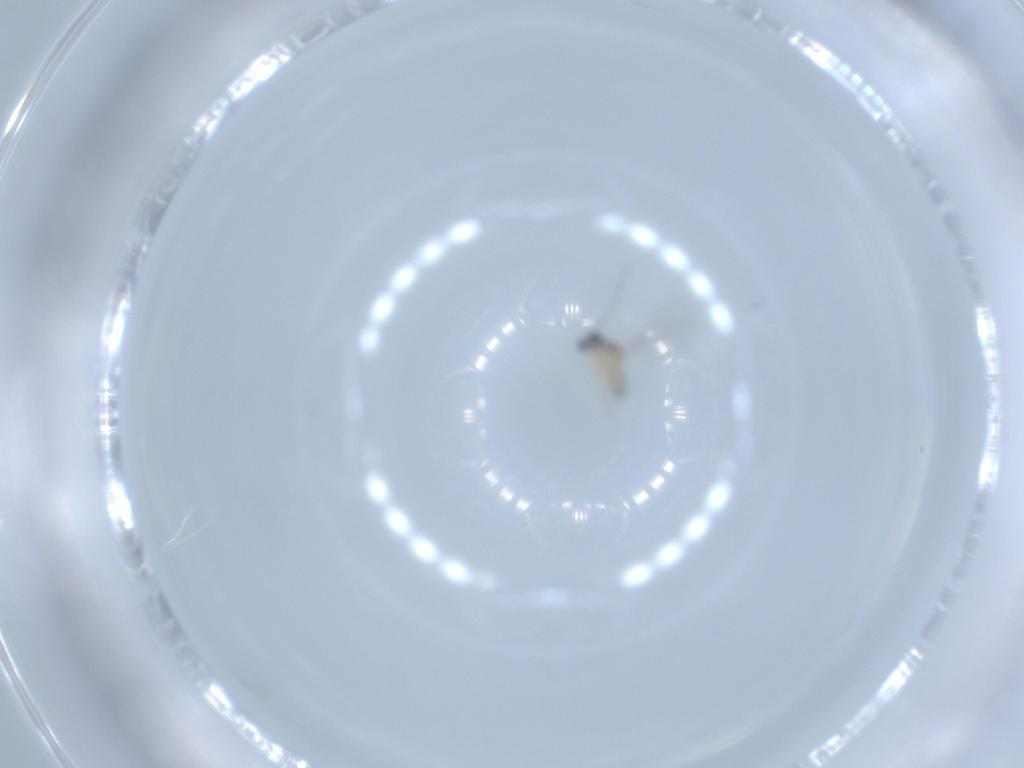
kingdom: Animalia
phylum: Arthropoda
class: Insecta
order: Diptera
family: Cecidomyiidae
